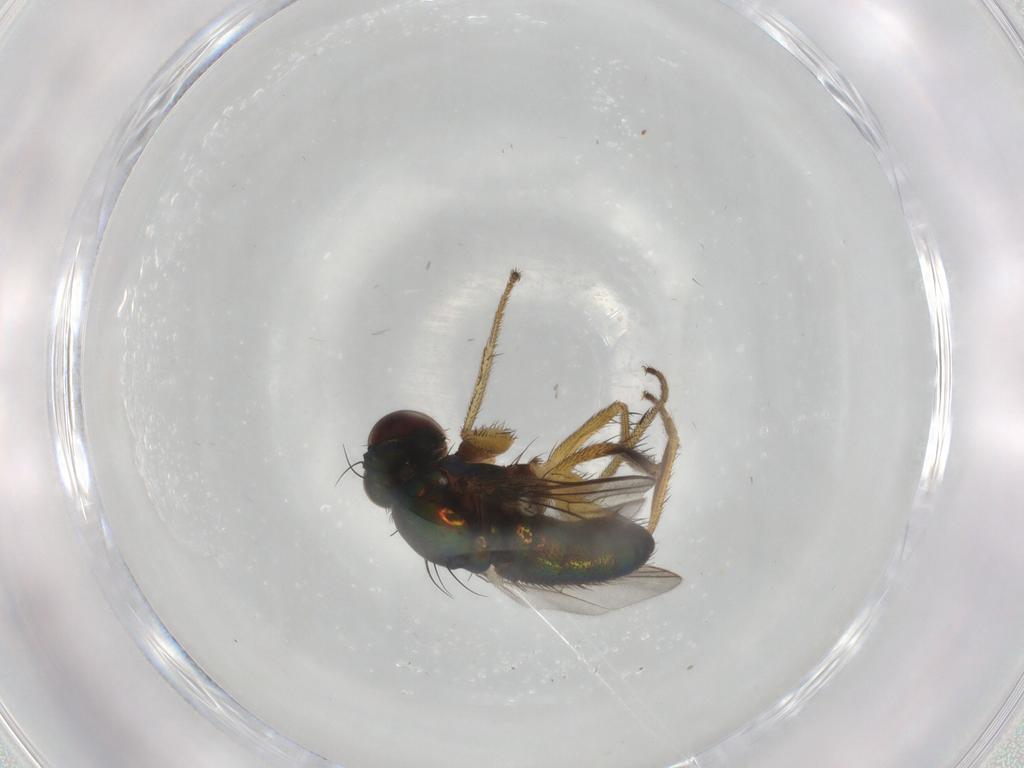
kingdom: Animalia
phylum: Arthropoda
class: Insecta
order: Diptera
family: Dolichopodidae
